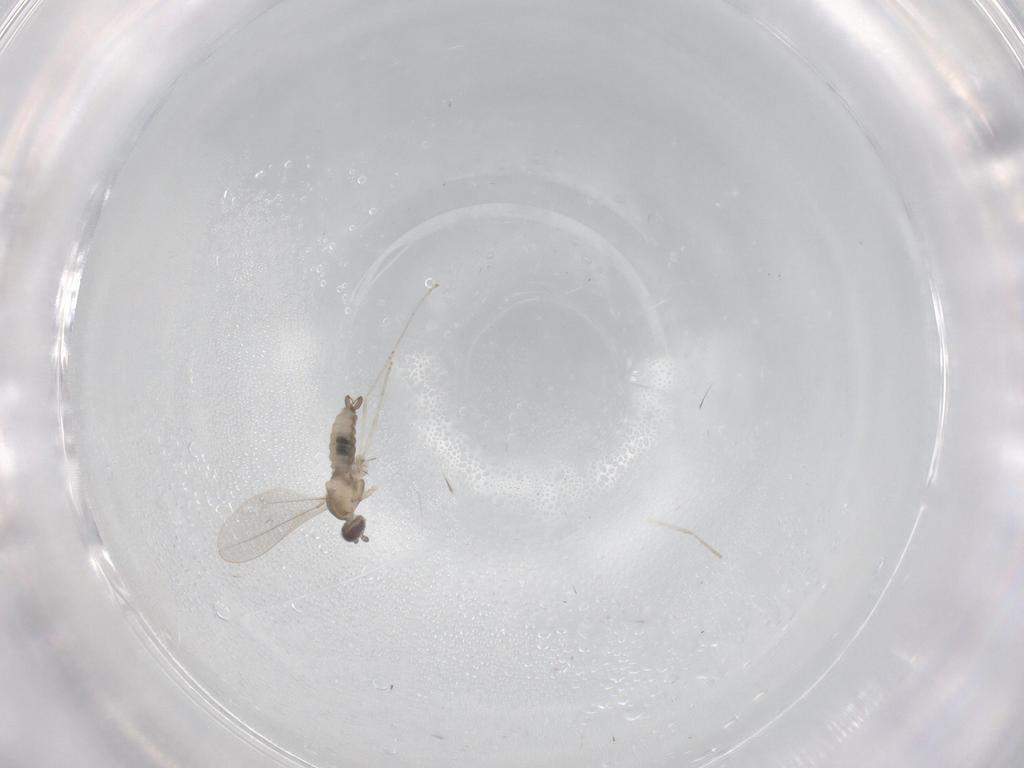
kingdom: Animalia
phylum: Arthropoda
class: Insecta
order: Diptera
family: Cecidomyiidae
